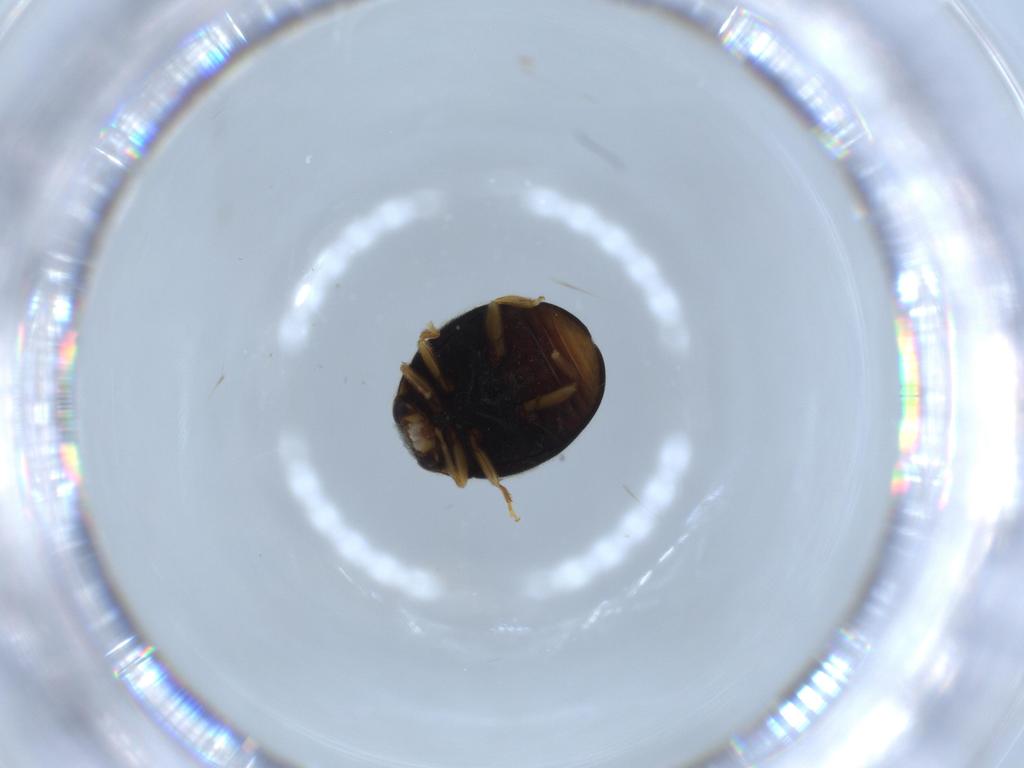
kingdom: Animalia
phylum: Arthropoda
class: Insecta
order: Coleoptera
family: Coccinellidae
